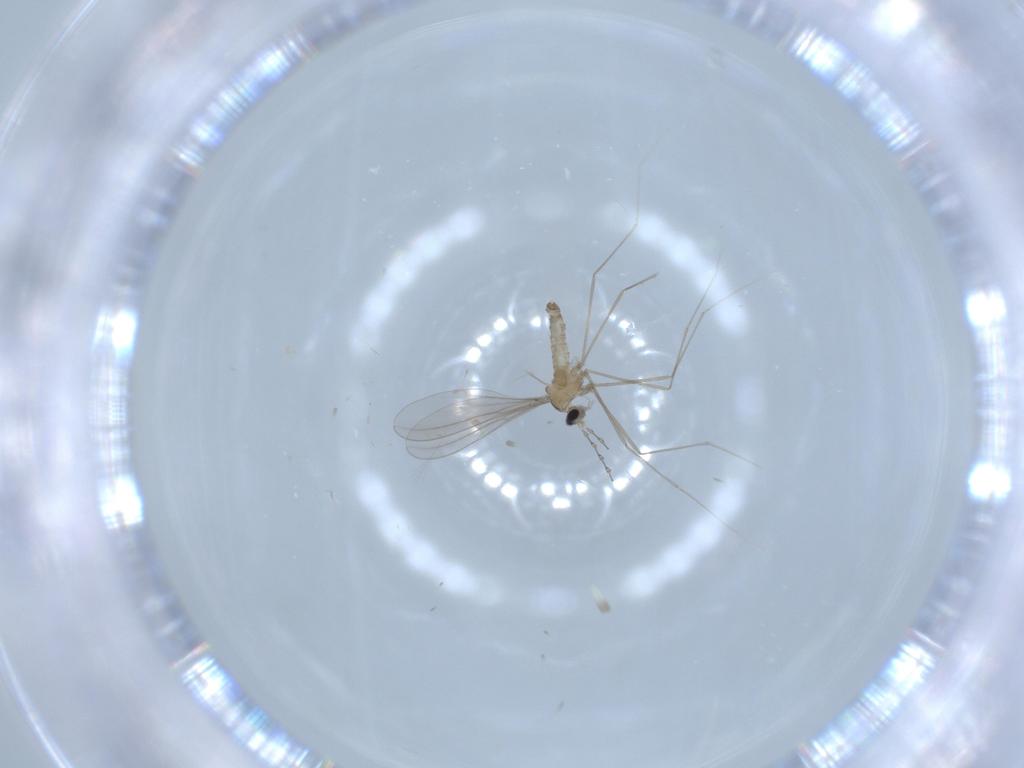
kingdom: Animalia
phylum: Arthropoda
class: Insecta
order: Diptera
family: Cecidomyiidae
